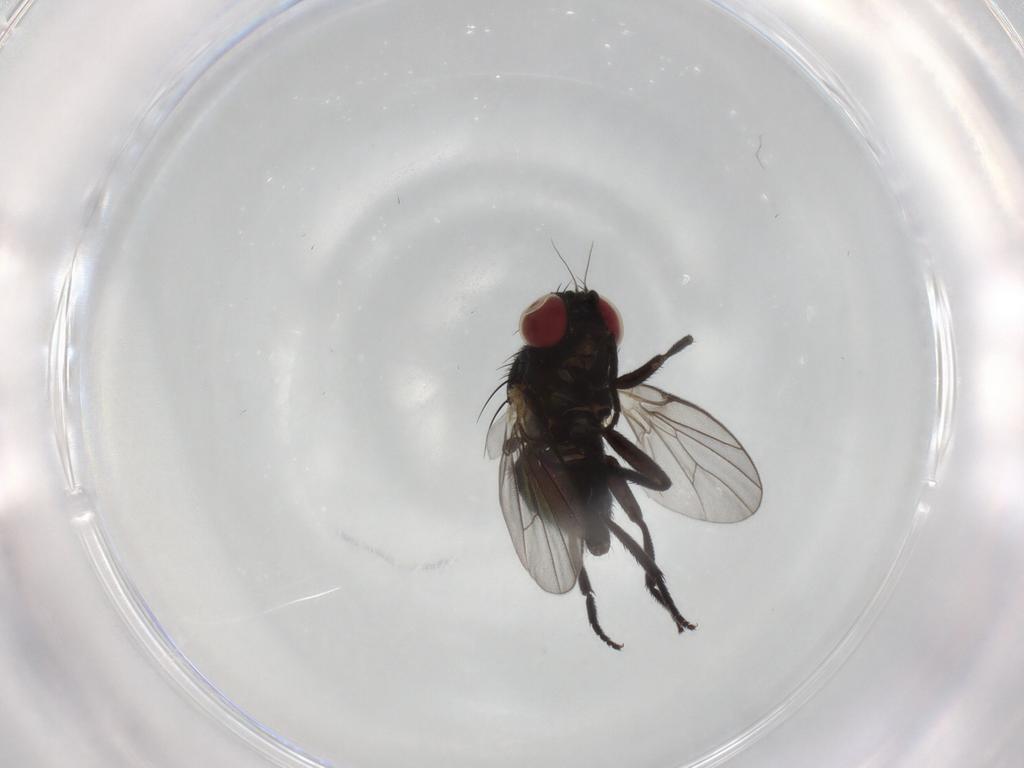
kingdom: Animalia
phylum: Arthropoda
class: Insecta
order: Diptera
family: Agromyzidae
